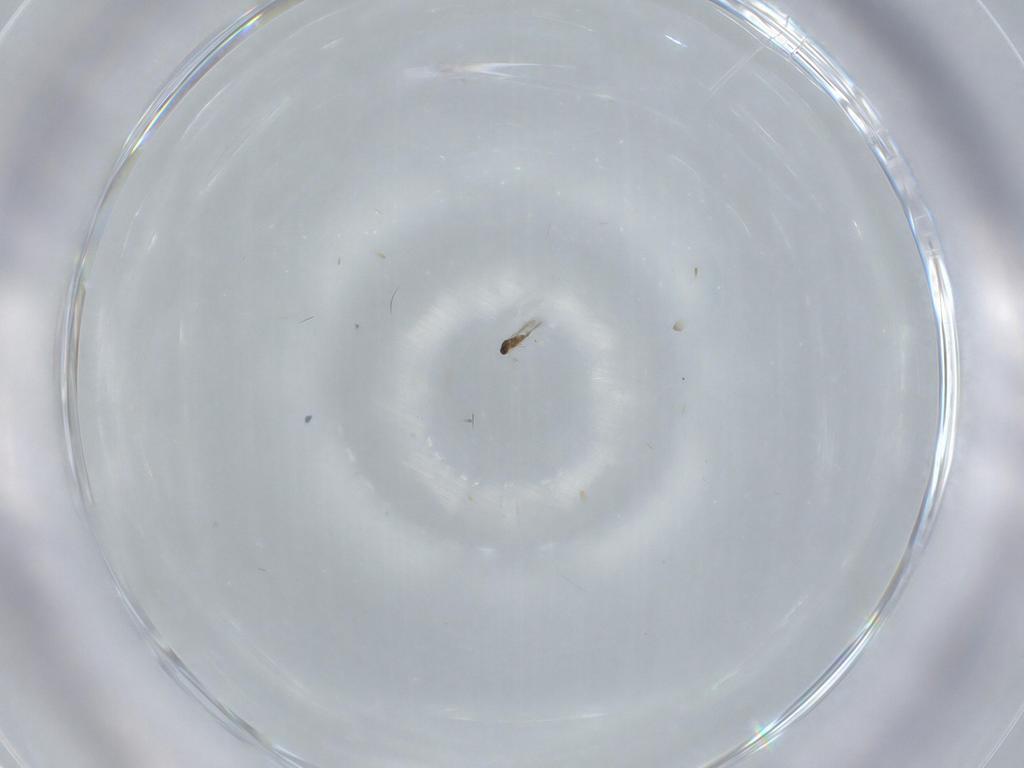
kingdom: Animalia
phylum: Arthropoda
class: Insecta
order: Hymenoptera
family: Mymaridae
